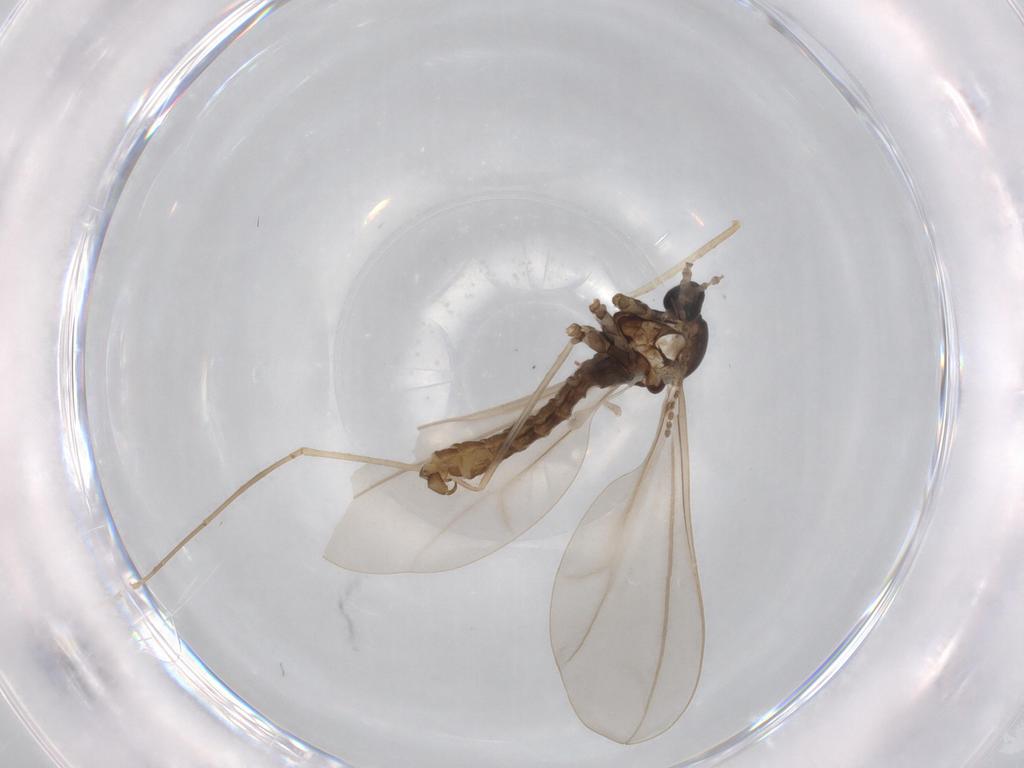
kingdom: Animalia
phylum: Arthropoda
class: Insecta
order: Diptera
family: Cecidomyiidae
